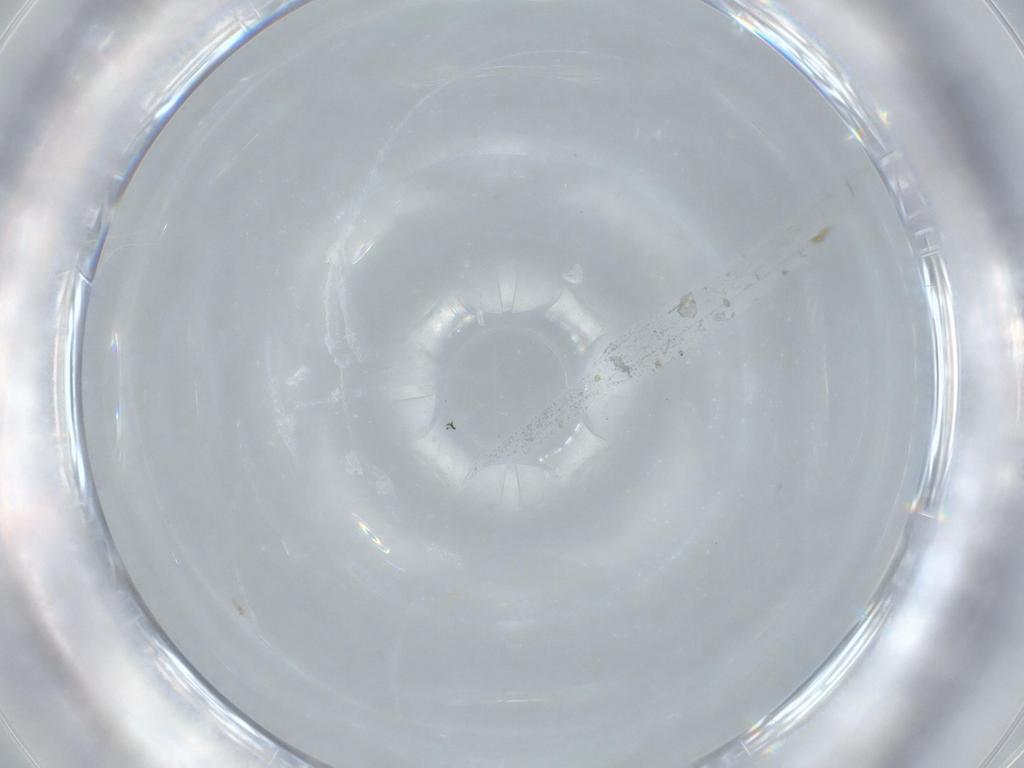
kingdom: Animalia
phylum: Arthropoda
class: Insecta
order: Diptera
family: Sciaridae
